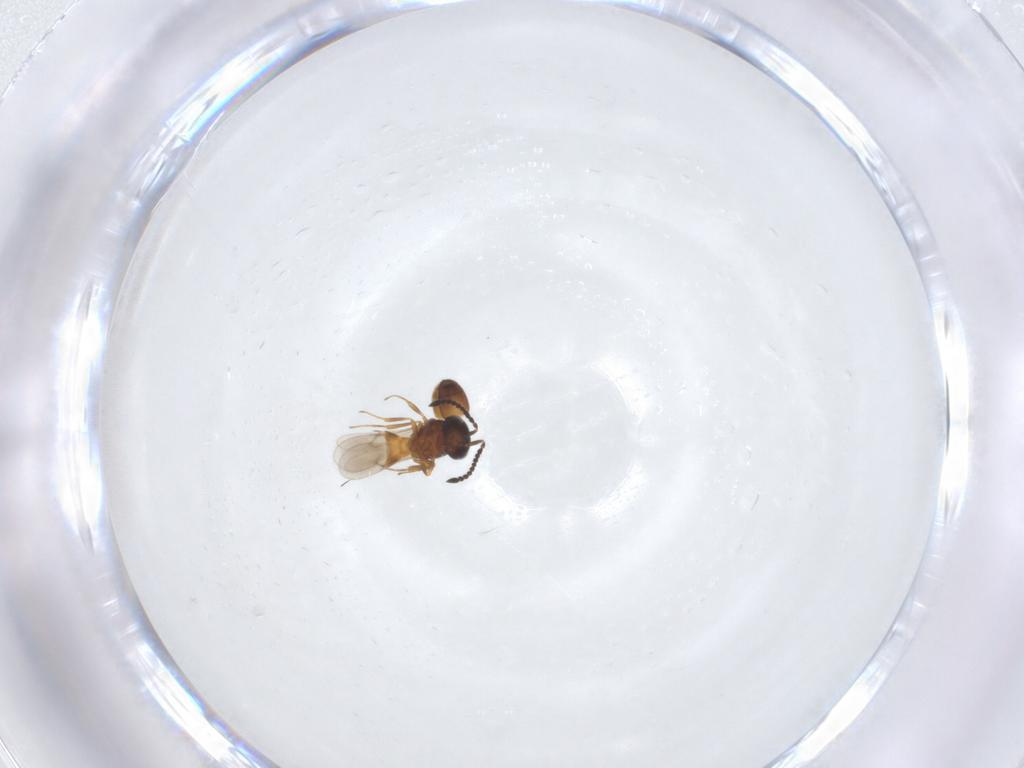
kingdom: Animalia
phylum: Arthropoda
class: Insecta
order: Hymenoptera
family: Scelionidae
